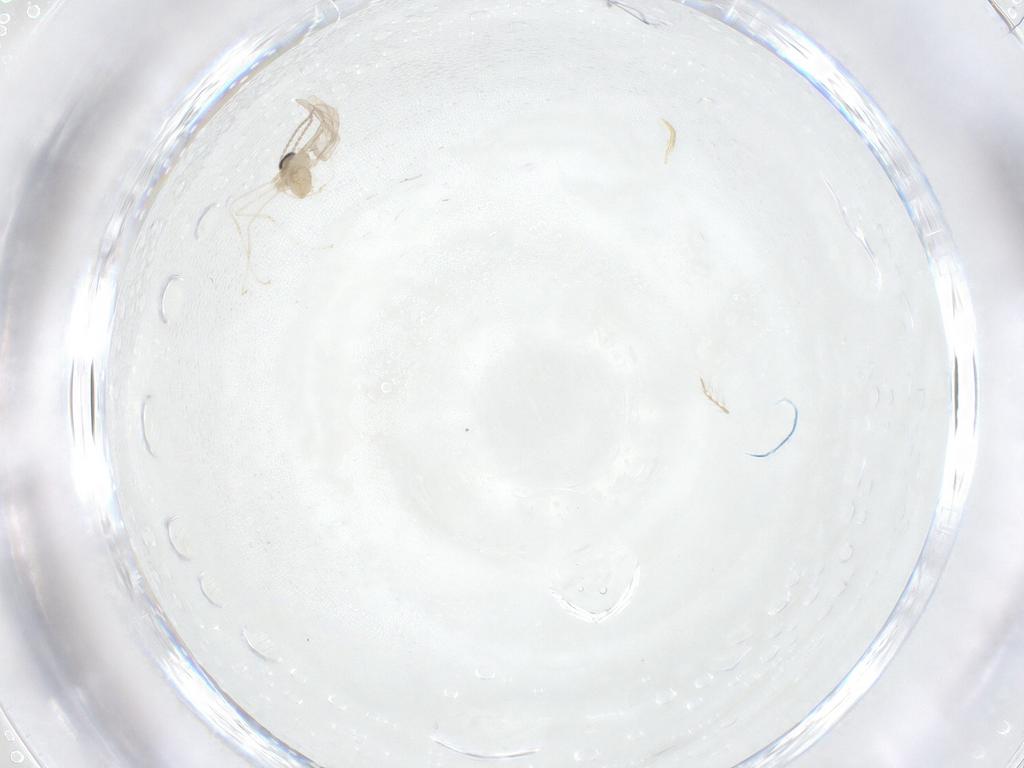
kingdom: Animalia
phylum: Arthropoda
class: Insecta
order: Diptera
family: Cecidomyiidae
